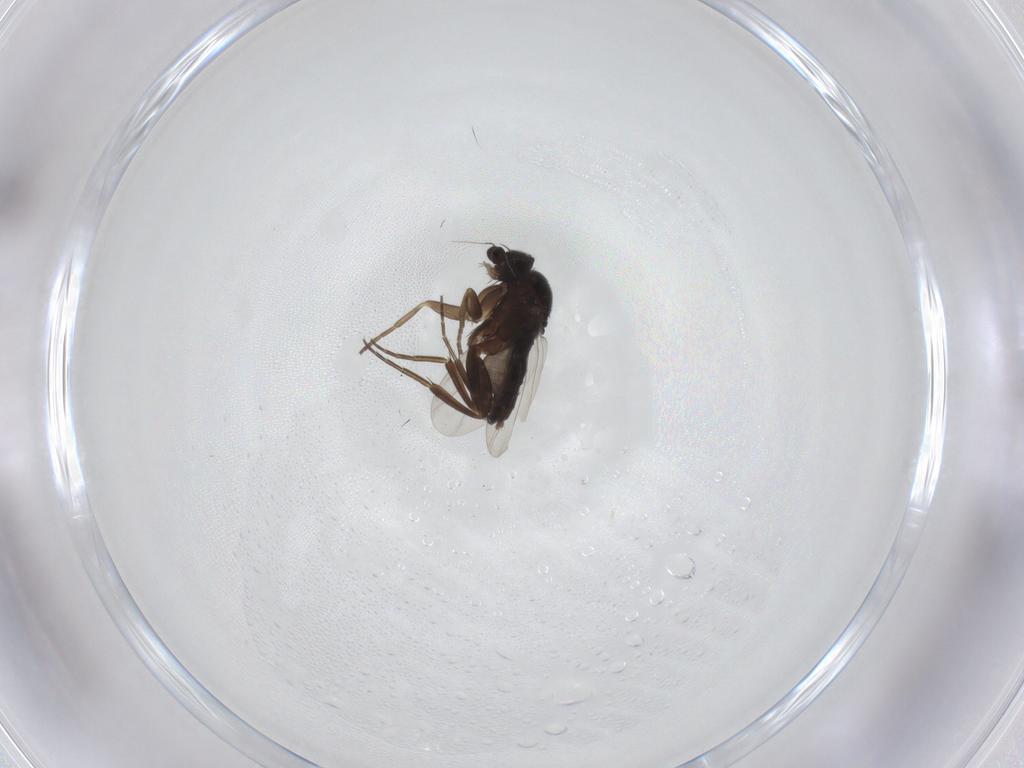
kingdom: Animalia
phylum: Arthropoda
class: Insecta
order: Diptera
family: Phoridae
